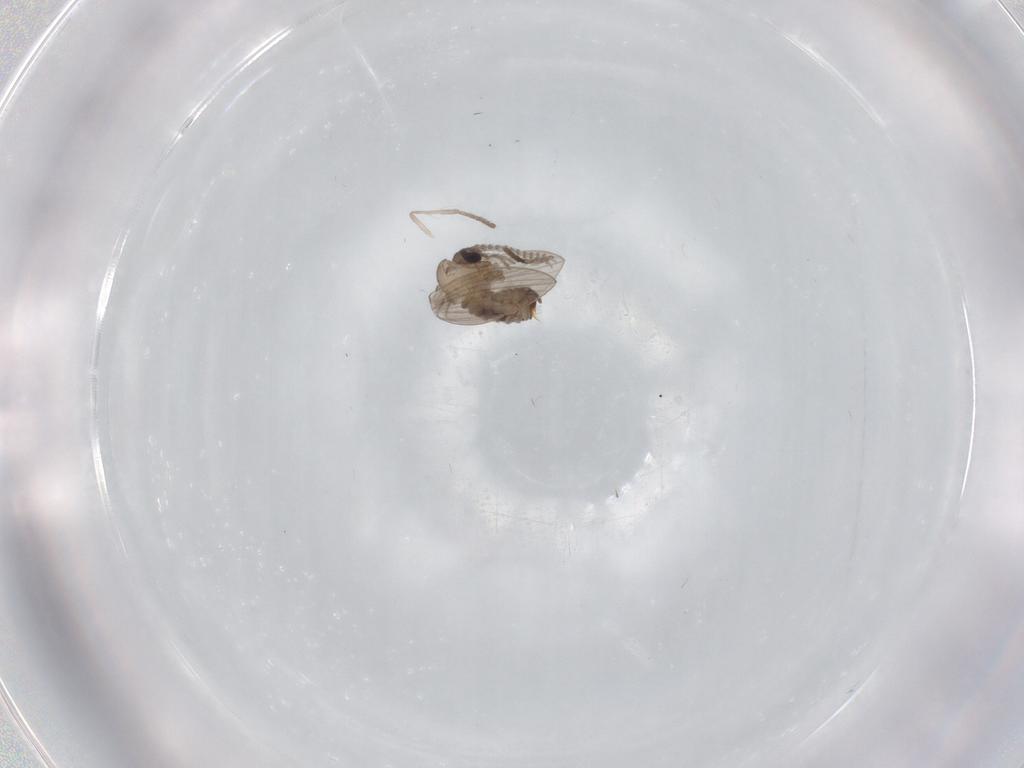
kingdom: Animalia
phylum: Arthropoda
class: Insecta
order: Diptera
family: Psychodidae
